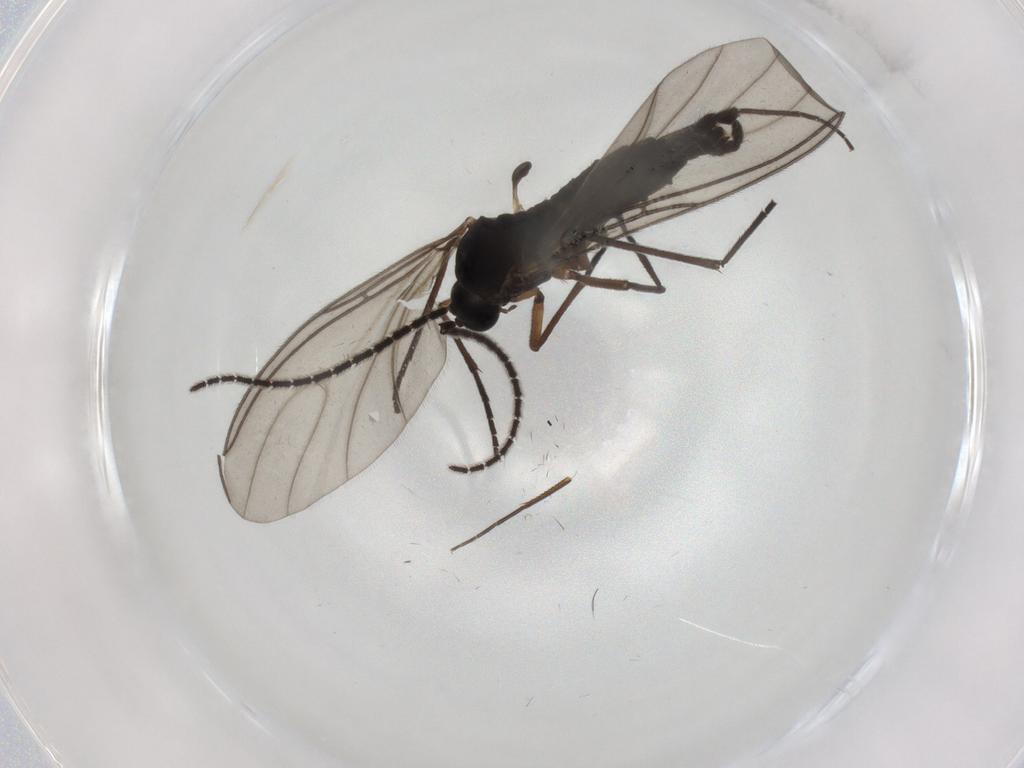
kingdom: Animalia
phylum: Arthropoda
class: Insecta
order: Diptera
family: Sciaridae
